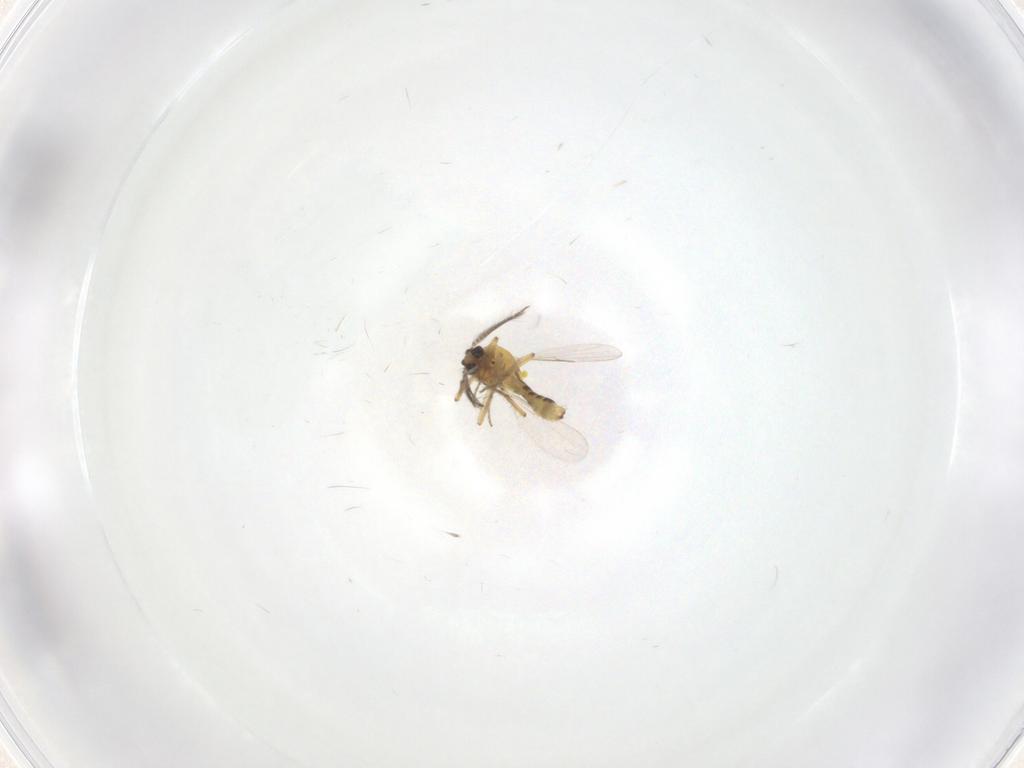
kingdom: Animalia
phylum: Arthropoda
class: Insecta
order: Diptera
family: Ceratopogonidae
